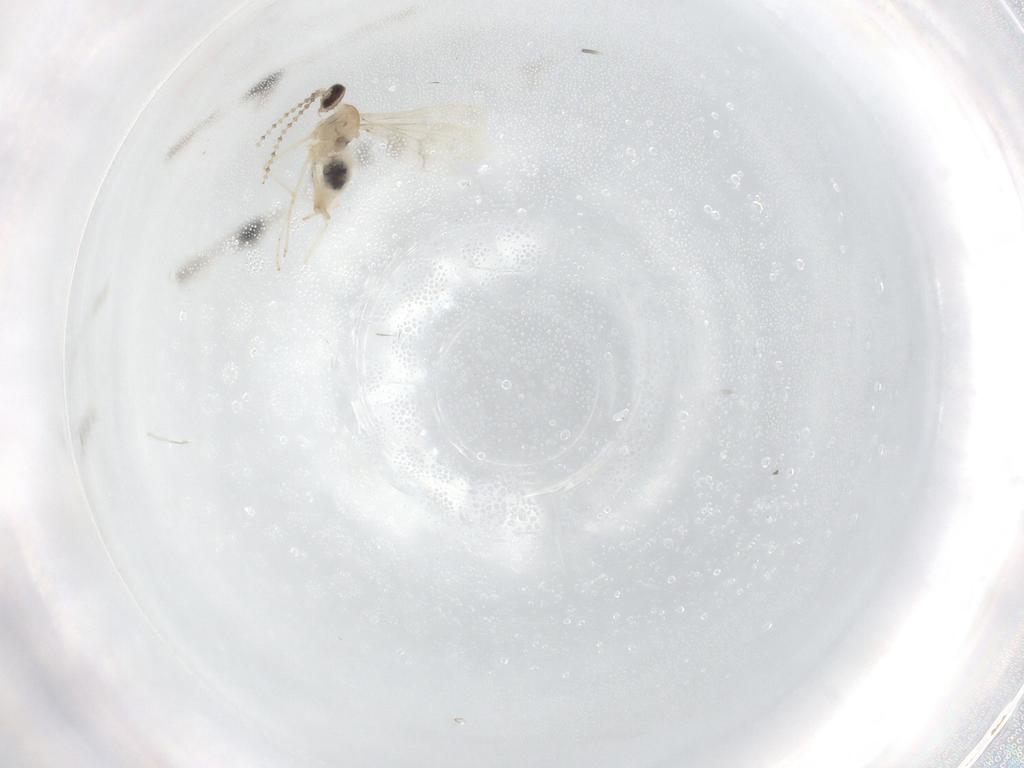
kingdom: Animalia
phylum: Arthropoda
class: Insecta
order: Diptera
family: Cecidomyiidae
